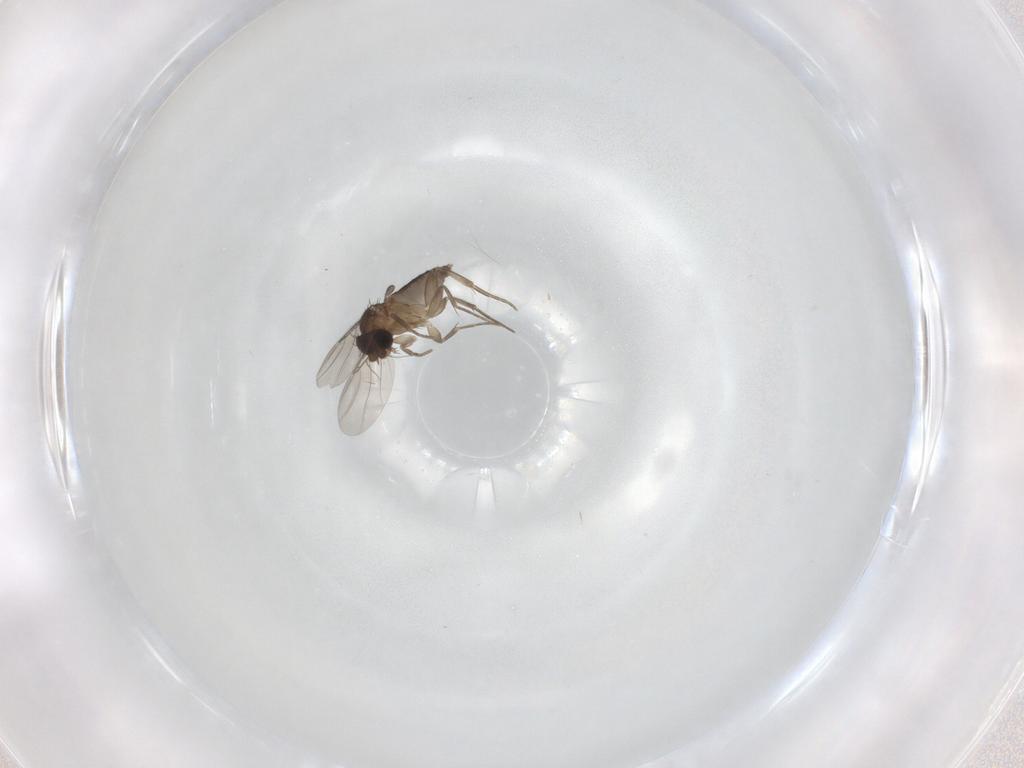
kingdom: Animalia
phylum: Arthropoda
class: Insecta
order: Diptera
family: Phoridae
